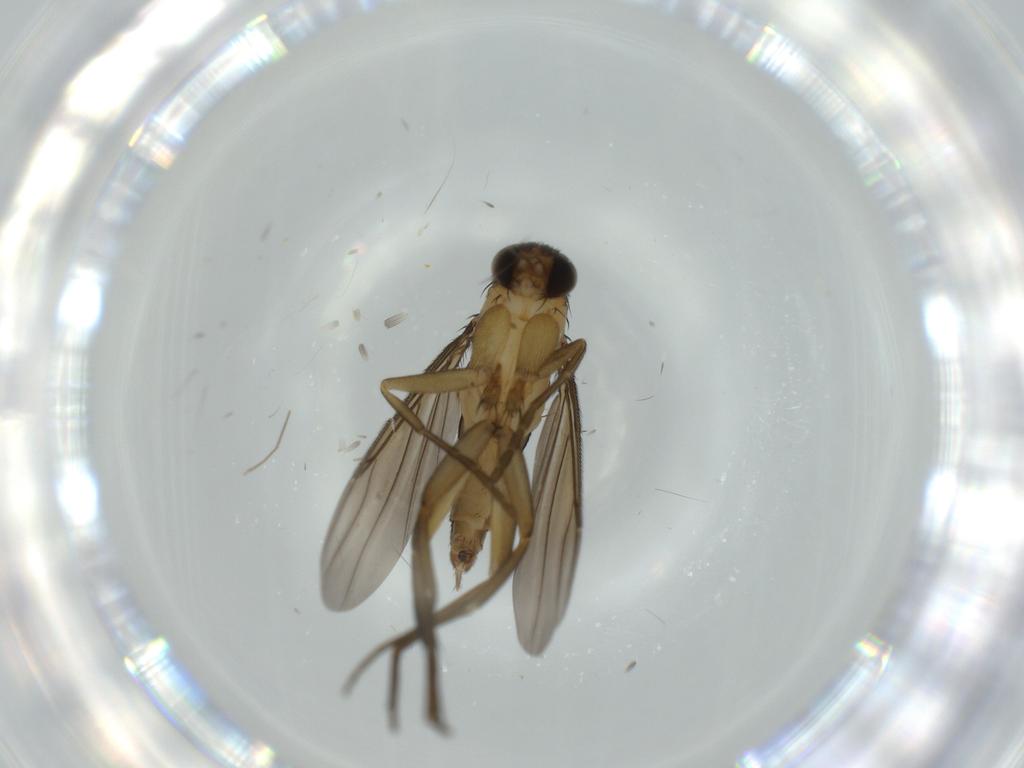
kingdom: Animalia
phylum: Arthropoda
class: Insecta
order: Diptera
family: Phoridae
